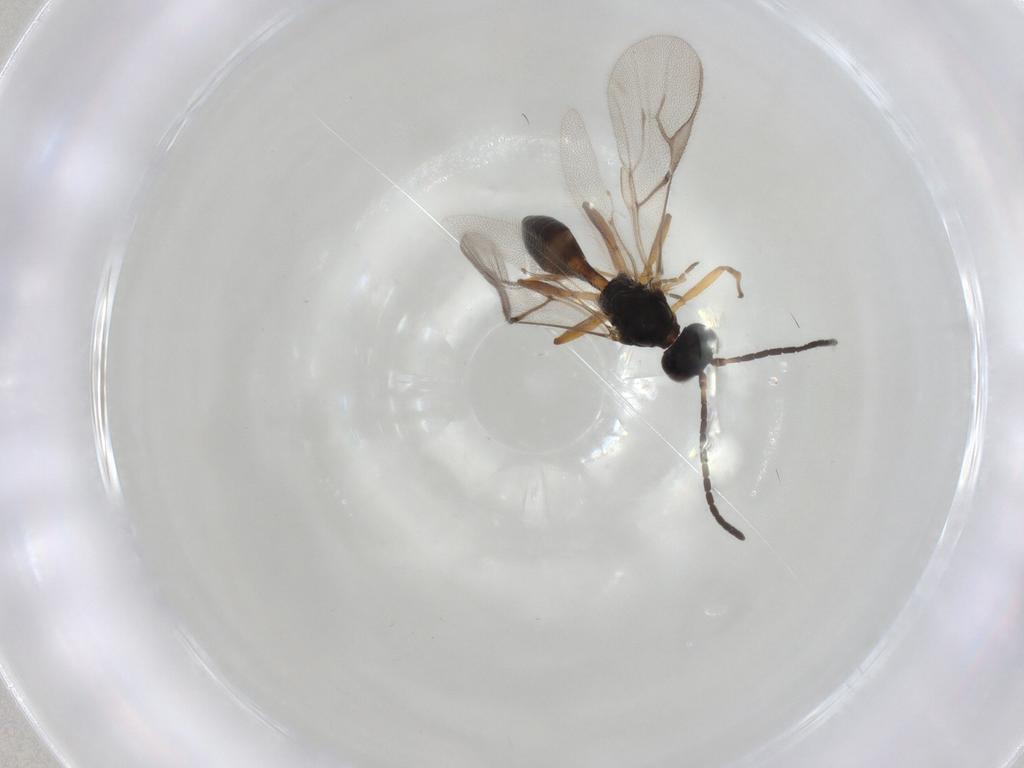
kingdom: Animalia
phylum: Arthropoda
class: Insecta
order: Hymenoptera
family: Braconidae
